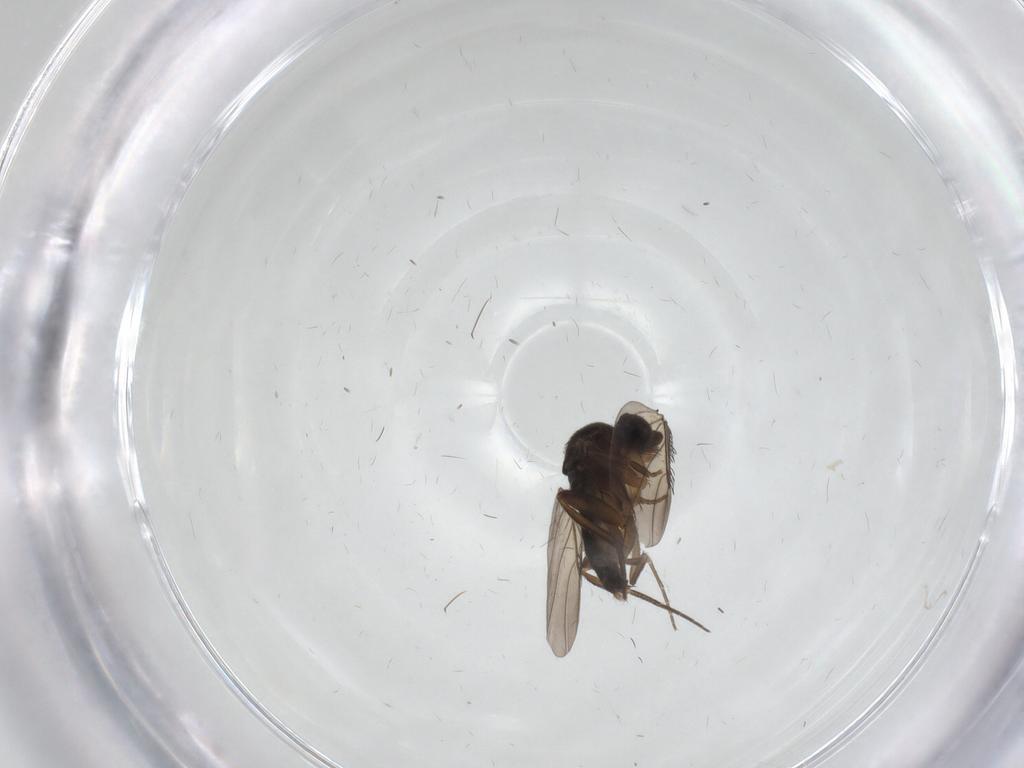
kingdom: Animalia
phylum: Arthropoda
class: Insecta
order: Diptera
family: Phoridae
